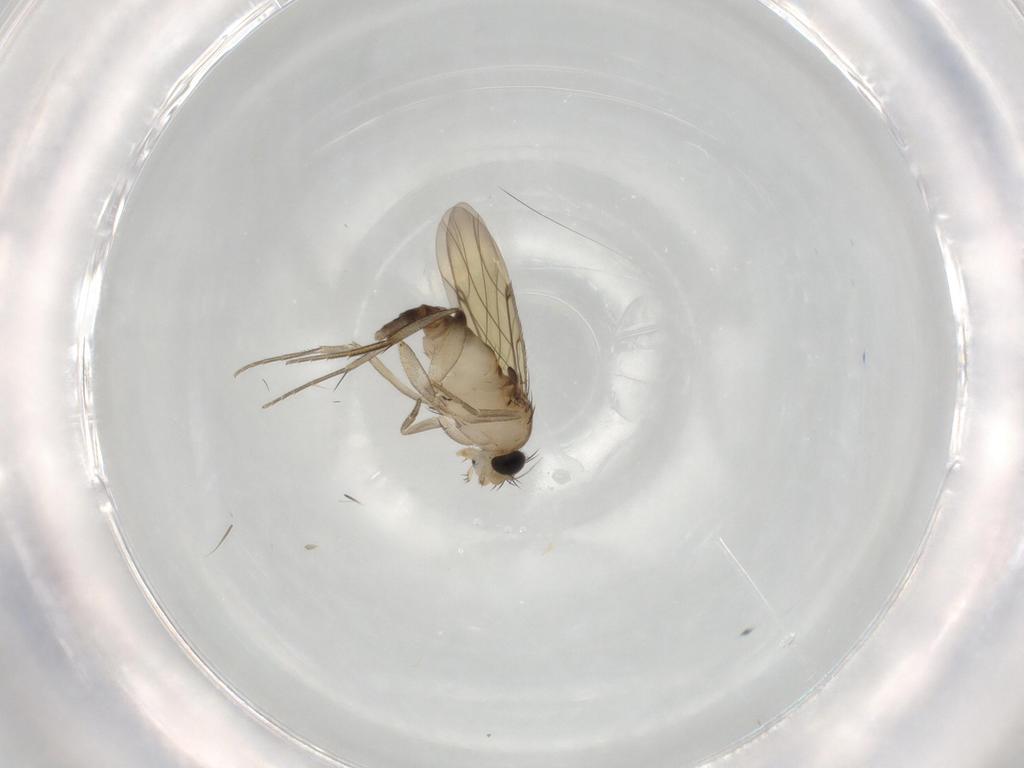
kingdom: Animalia
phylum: Arthropoda
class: Insecta
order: Diptera
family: Phoridae
